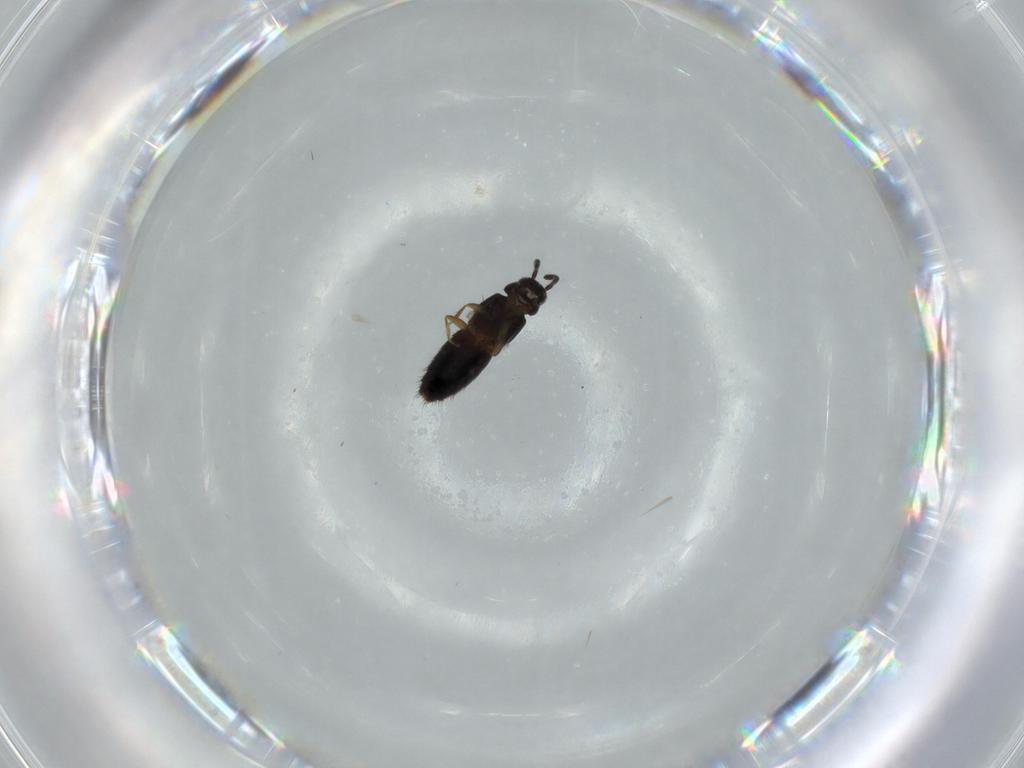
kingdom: Animalia
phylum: Arthropoda
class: Insecta
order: Coleoptera
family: Staphylinidae
